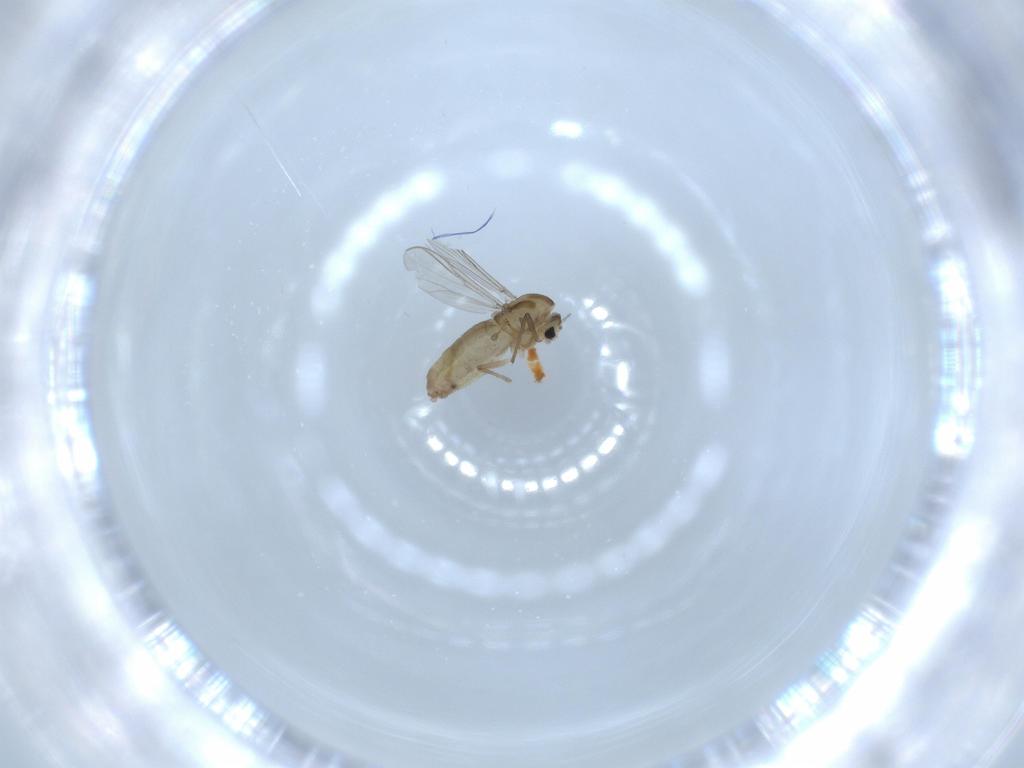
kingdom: Animalia
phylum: Arthropoda
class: Insecta
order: Diptera
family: Chironomidae
